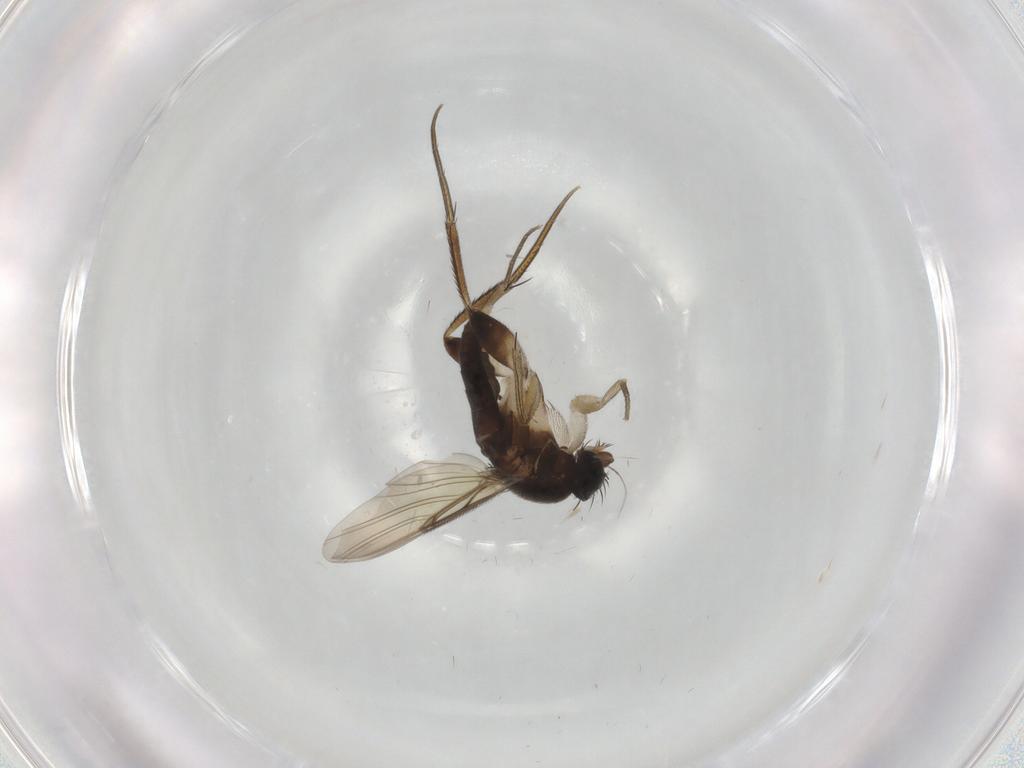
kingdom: Animalia
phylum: Arthropoda
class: Insecta
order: Diptera
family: Phoridae
